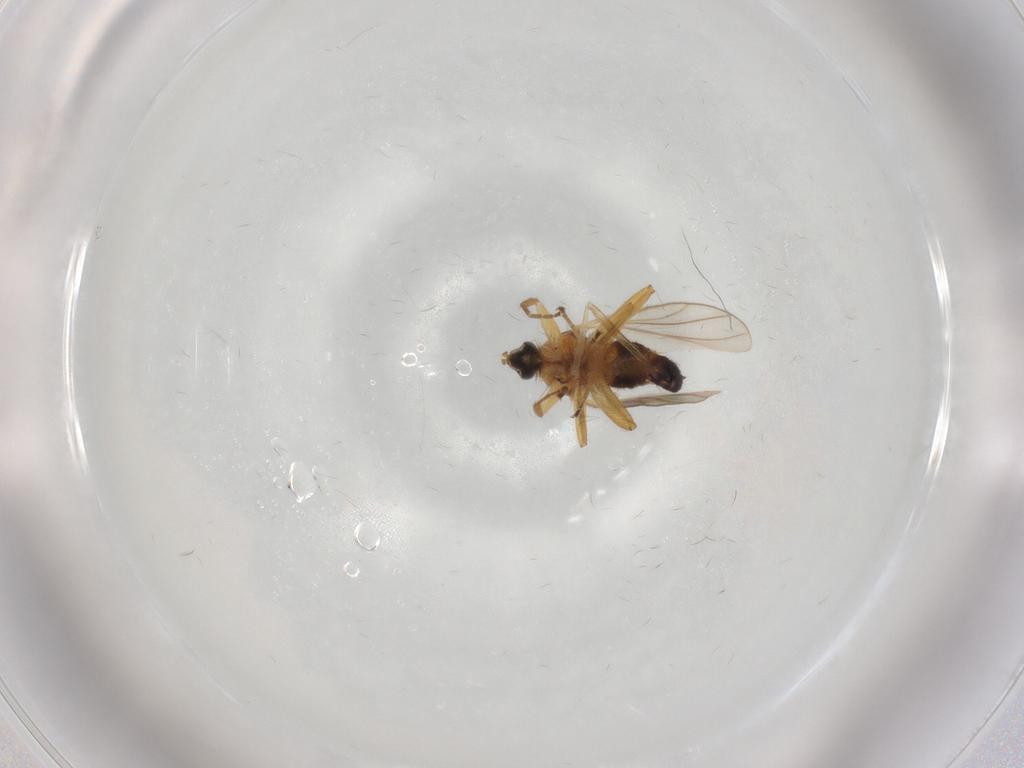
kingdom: Animalia
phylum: Arthropoda
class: Insecta
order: Diptera
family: Hybotidae
